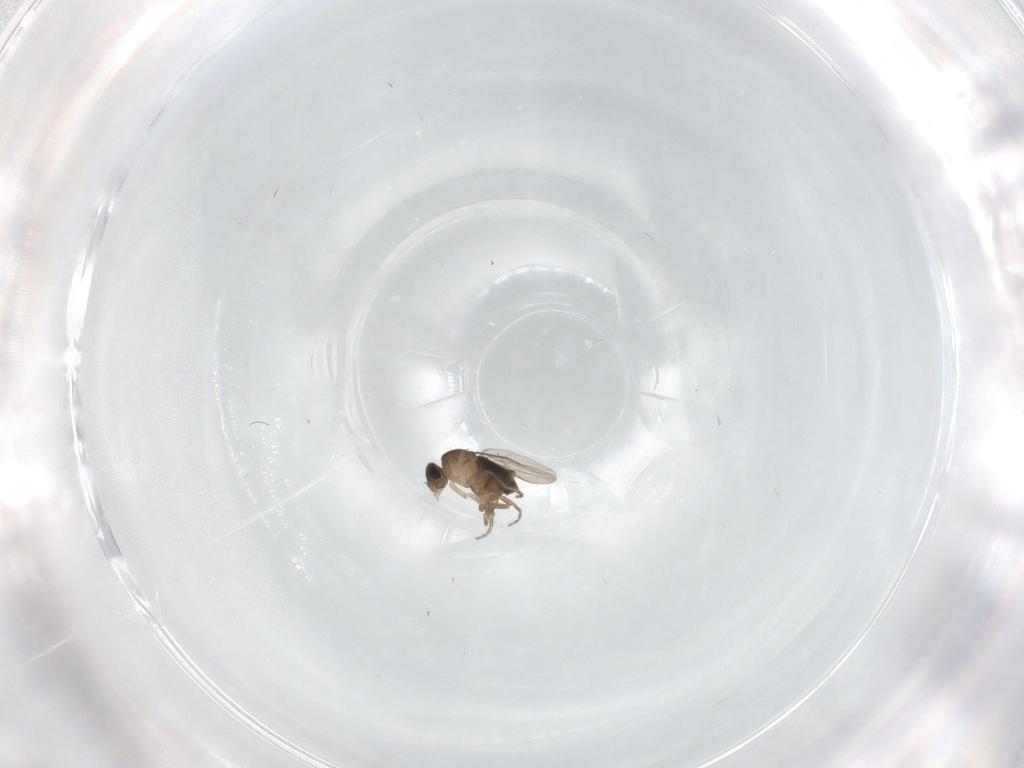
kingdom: Animalia
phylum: Arthropoda
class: Insecta
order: Diptera
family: Phoridae
